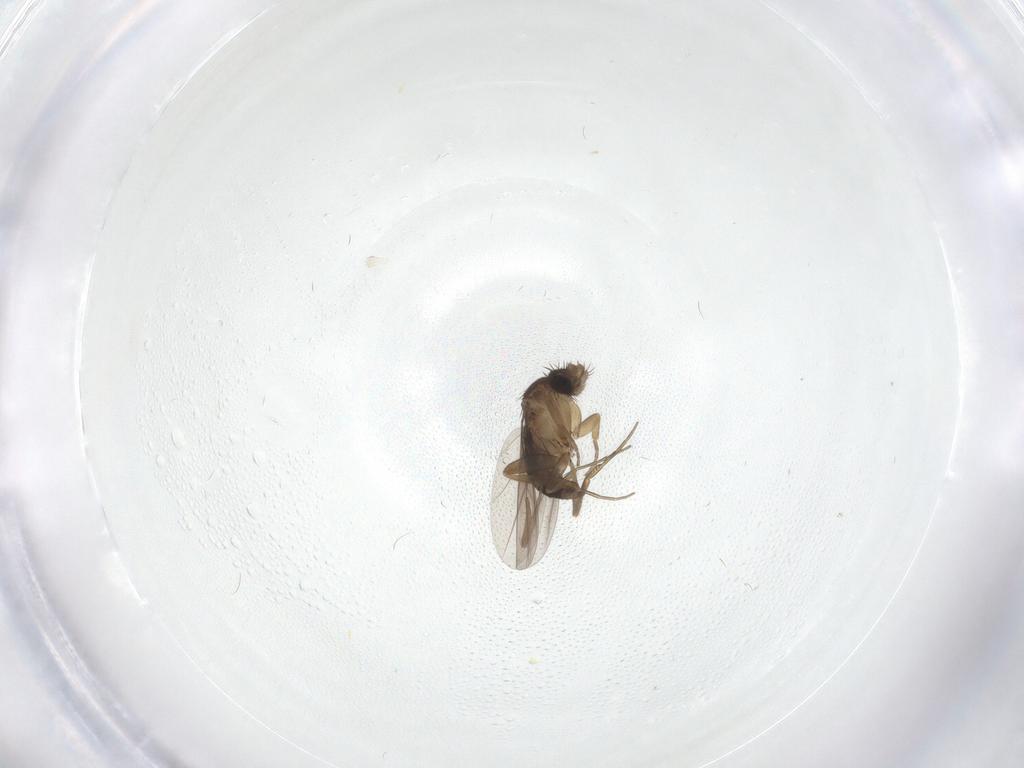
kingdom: Animalia
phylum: Arthropoda
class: Insecta
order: Diptera
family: Ceratopogonidae
